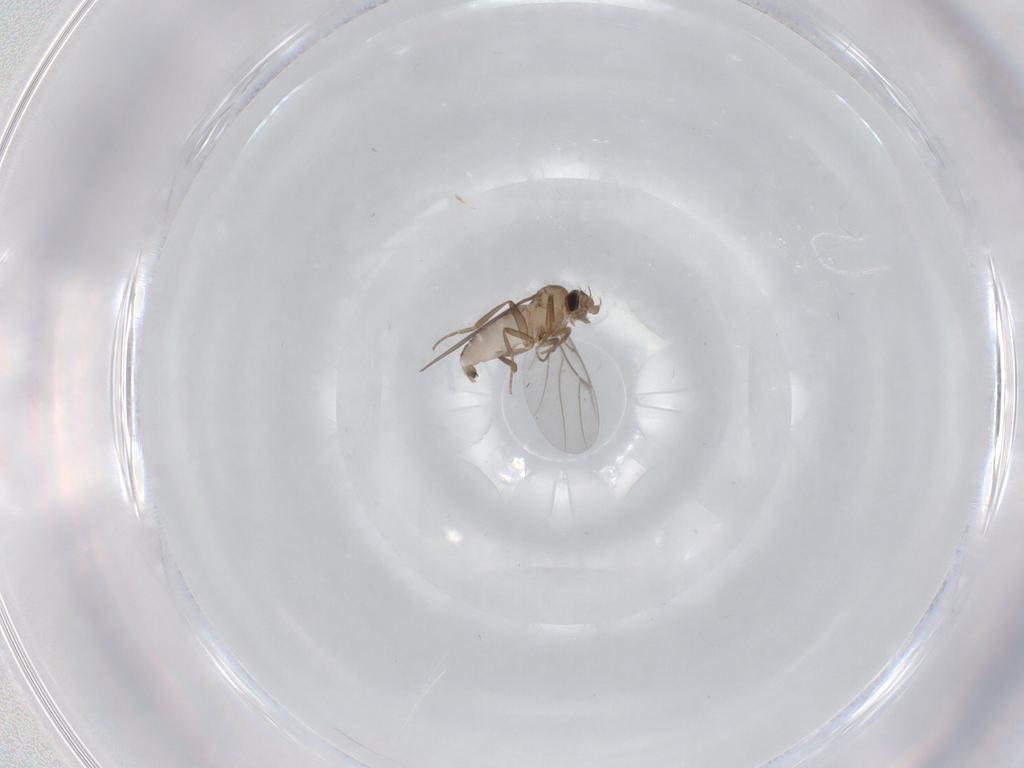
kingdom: Animalia
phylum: Arthropoda
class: Insecta
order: Diptera
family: Phoridae
